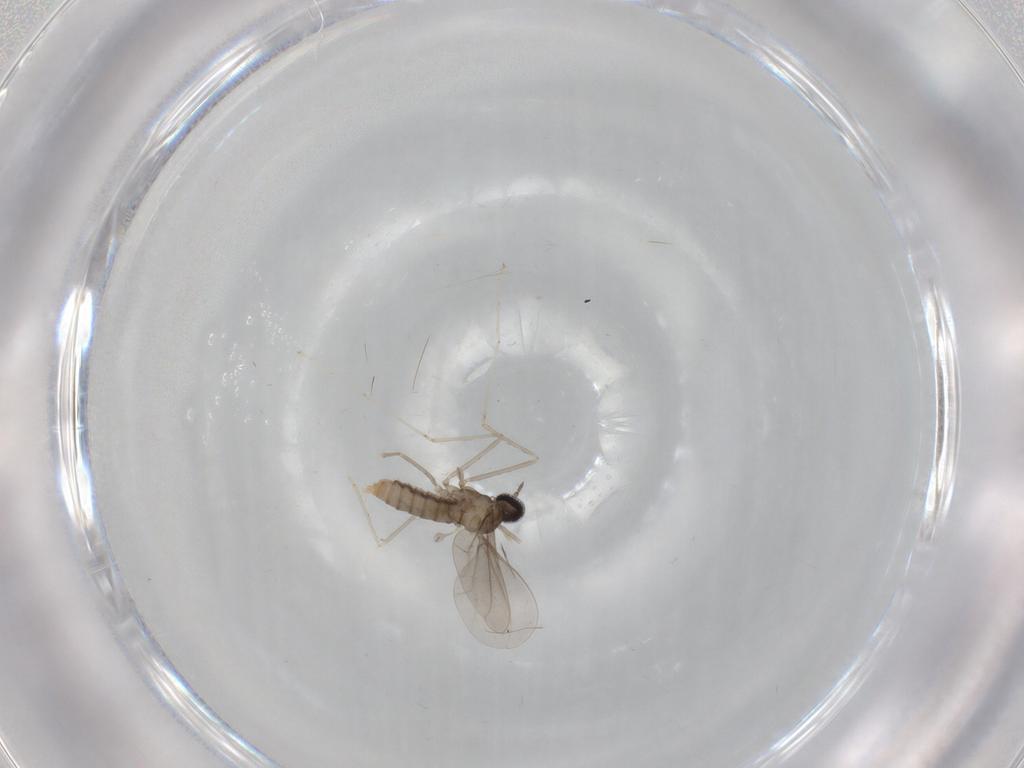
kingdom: Animalia
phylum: Arthropoda
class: Insecta
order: Diptera
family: Cecidomyiidae
